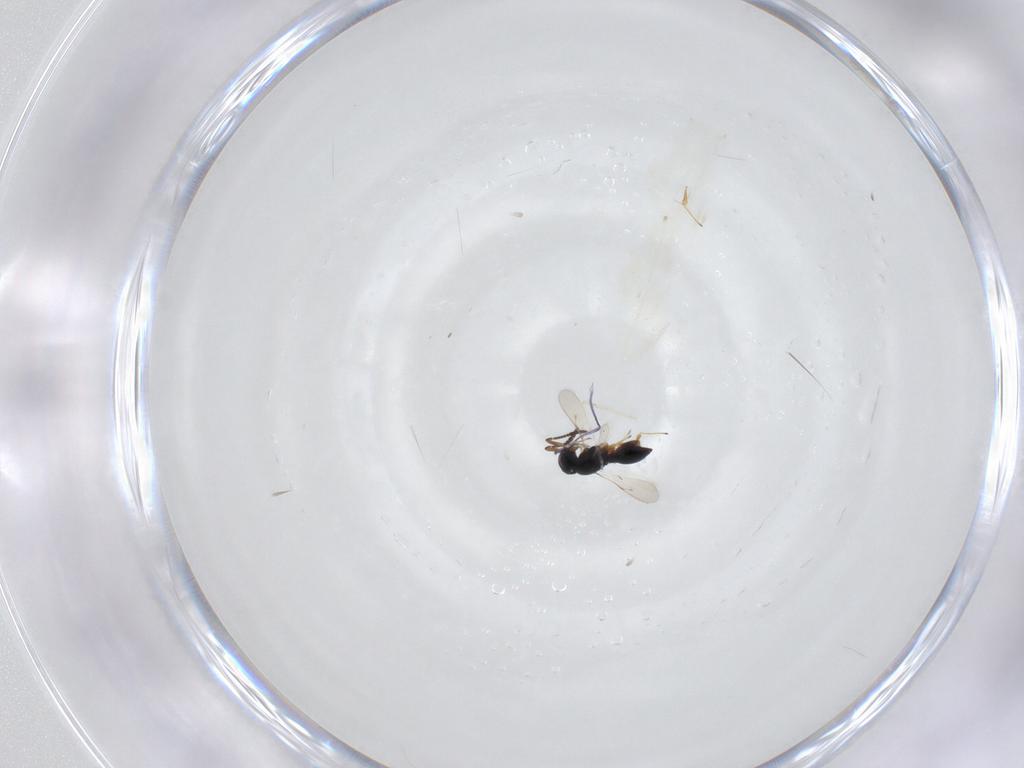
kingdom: Animalia
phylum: Arthropoda
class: Insecta
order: Hymenoptera
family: Scelionidae
